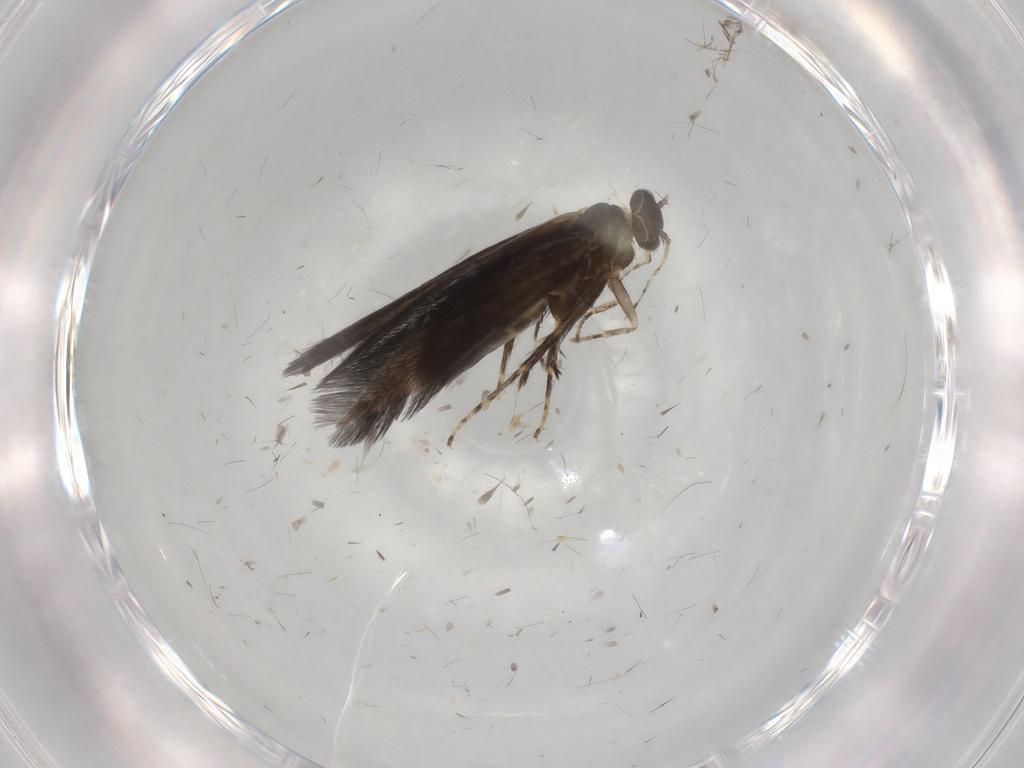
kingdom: Animalia
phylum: Arthropoda
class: Insecta
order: Trichoptera
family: Hydroptilidae
